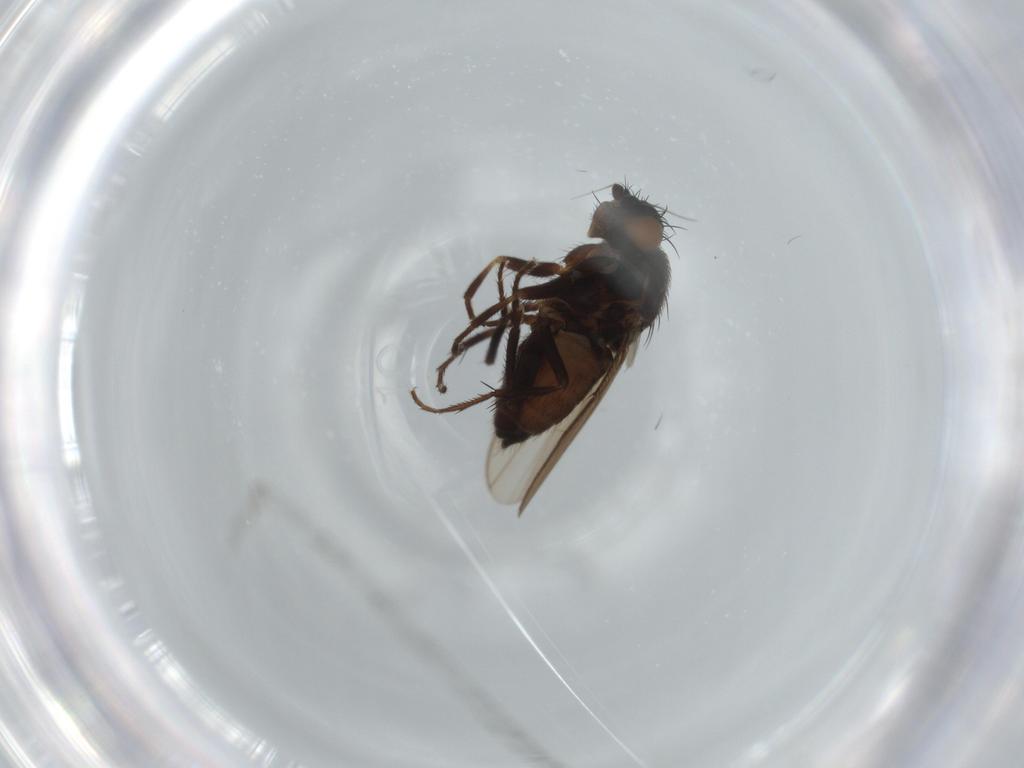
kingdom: Animalia
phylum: Arthropoda
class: Insecta
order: Diptera
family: Sphaeroceridae
